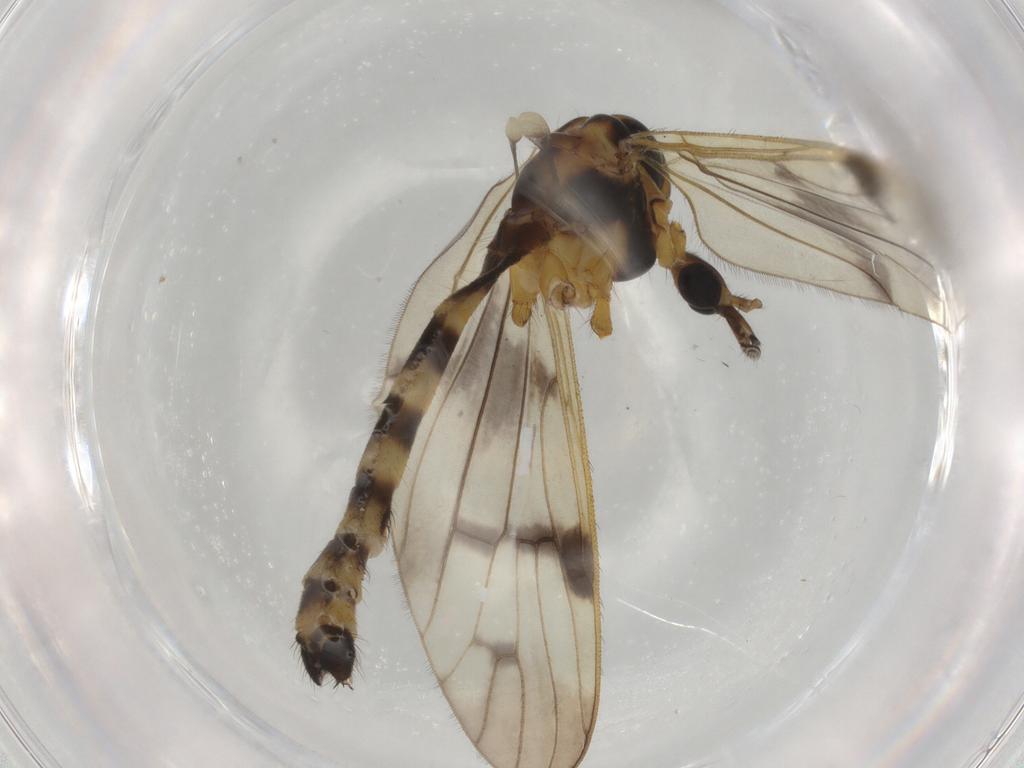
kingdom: Animalia
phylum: Arthropoda
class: Insecta
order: Diptera
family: Limoniidae
